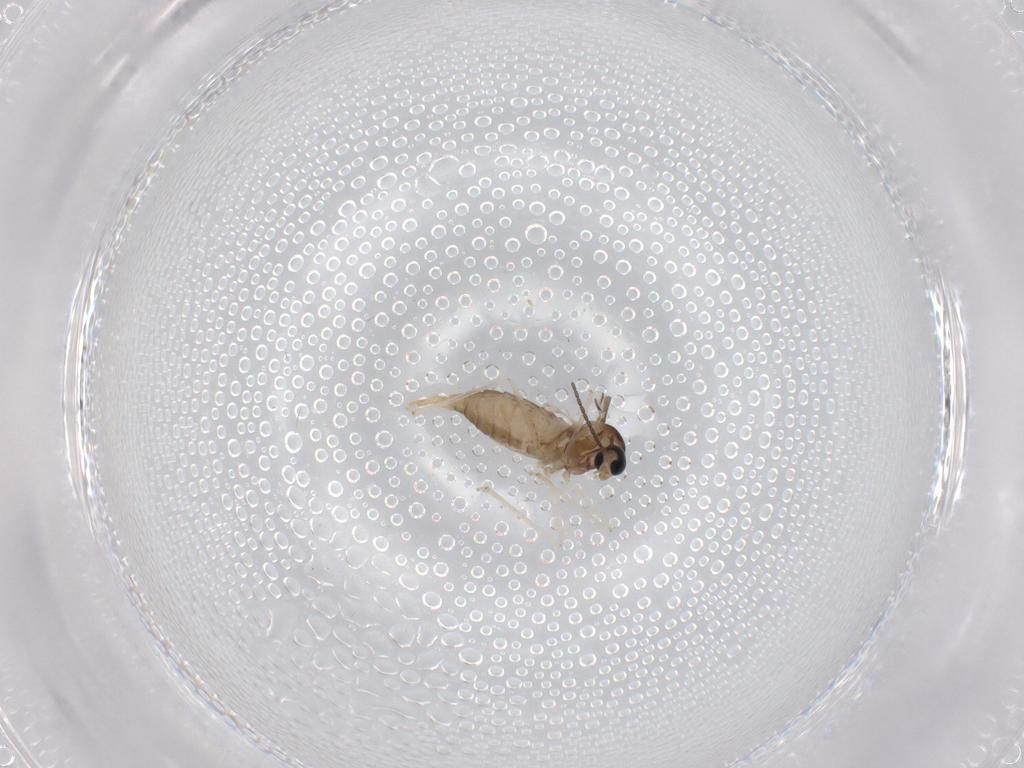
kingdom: Animalia
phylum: Arthropoda
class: Insecta
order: Diptera
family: Cecidomyiidae
